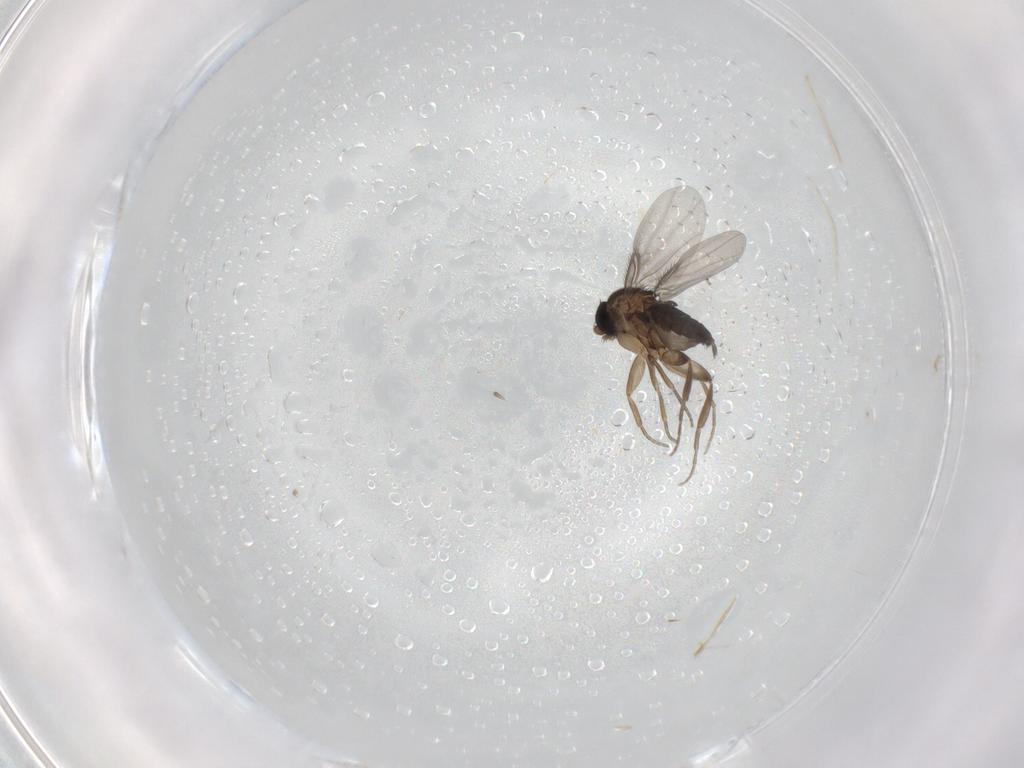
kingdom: Animalia
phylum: Arthropoda
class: Insecta
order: Diptera
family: Phoridae
